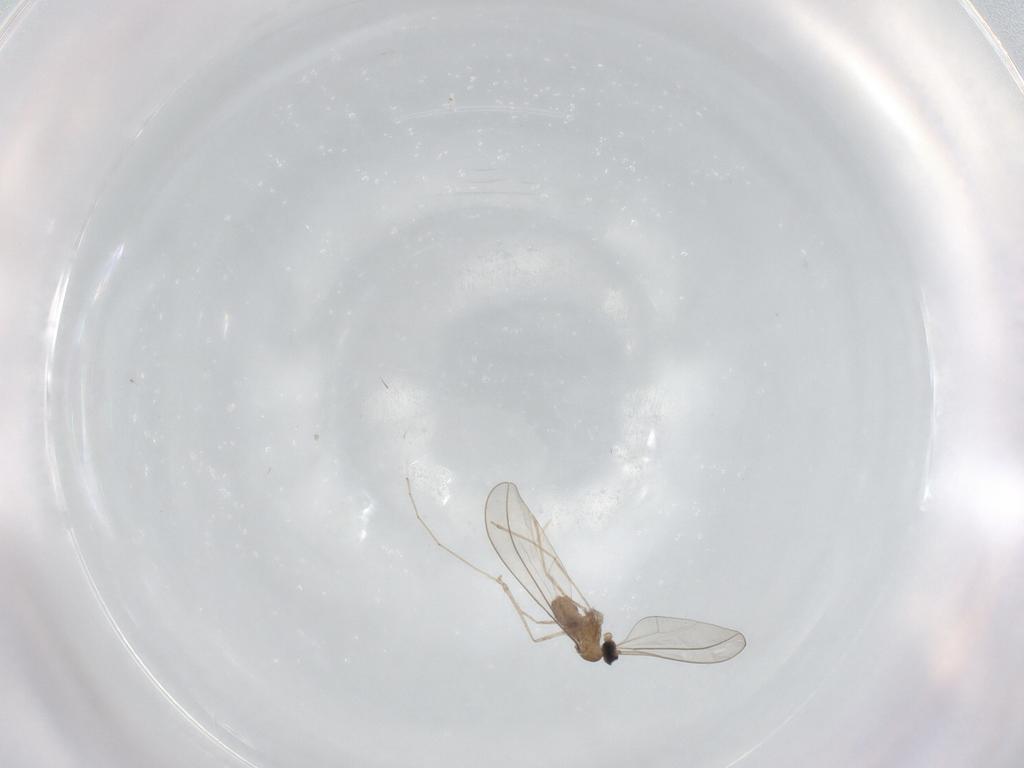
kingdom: Animalia
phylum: Arthropoda
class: Insecta
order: Diptera
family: Cecidomyiidae
